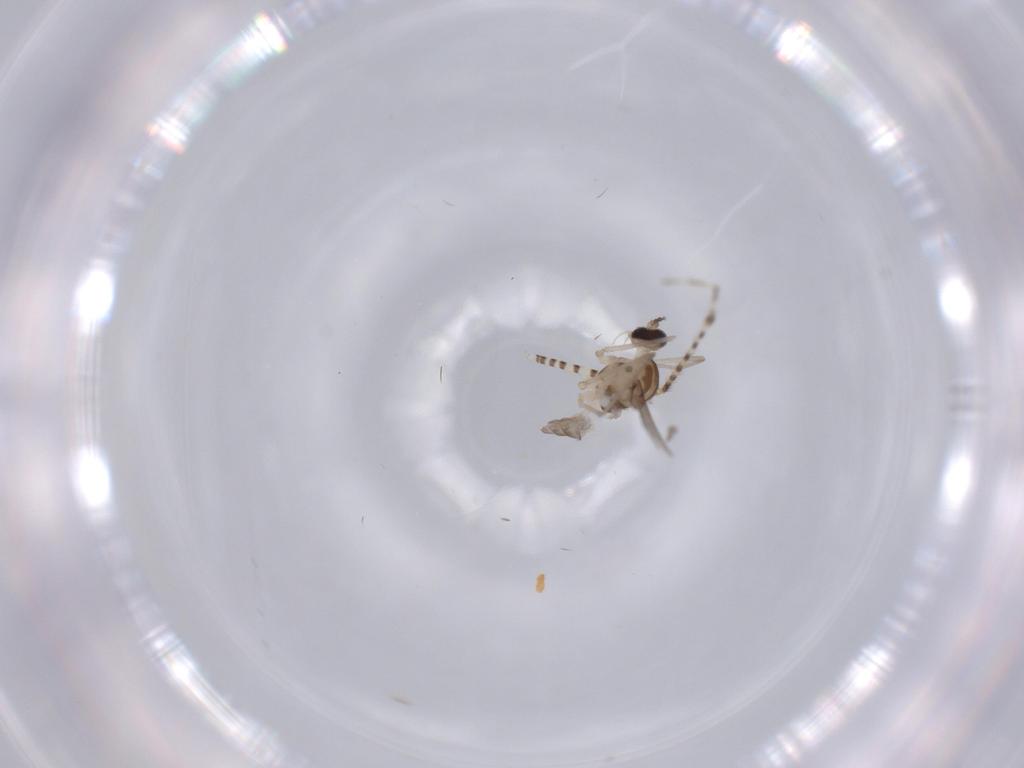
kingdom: Animalia
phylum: Arthropoda
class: Insecta
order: Diptera
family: Cecidomyiidae
